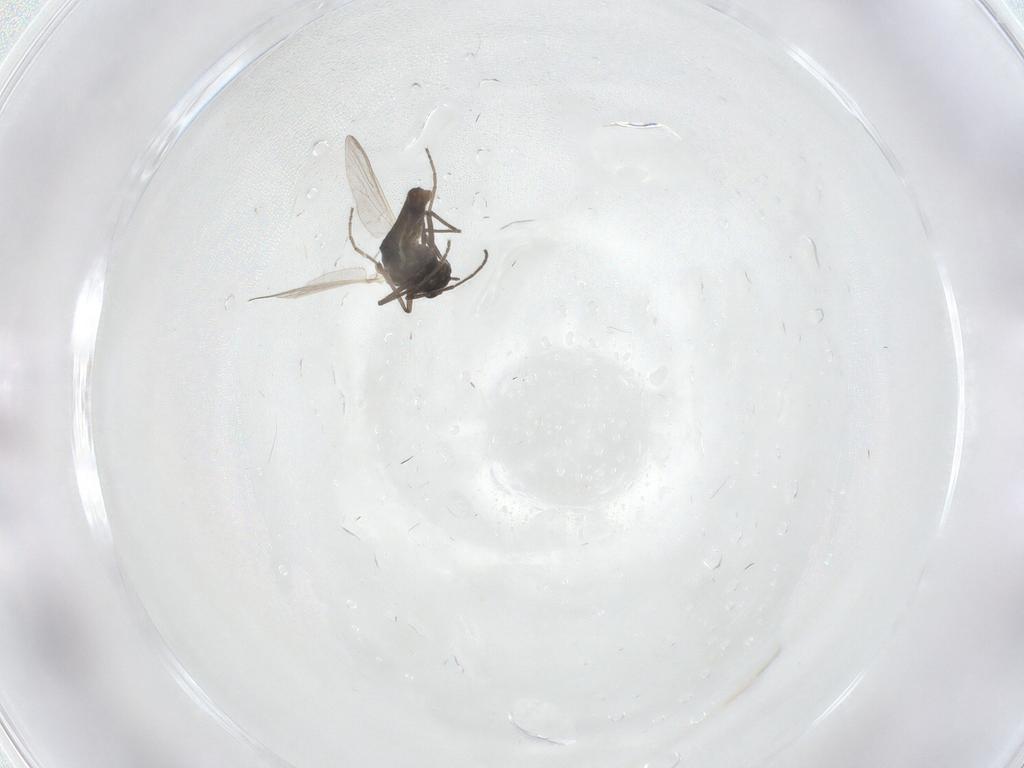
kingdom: Animalia
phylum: Arthropoda
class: Insecta
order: Diptera
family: Chironomidae
